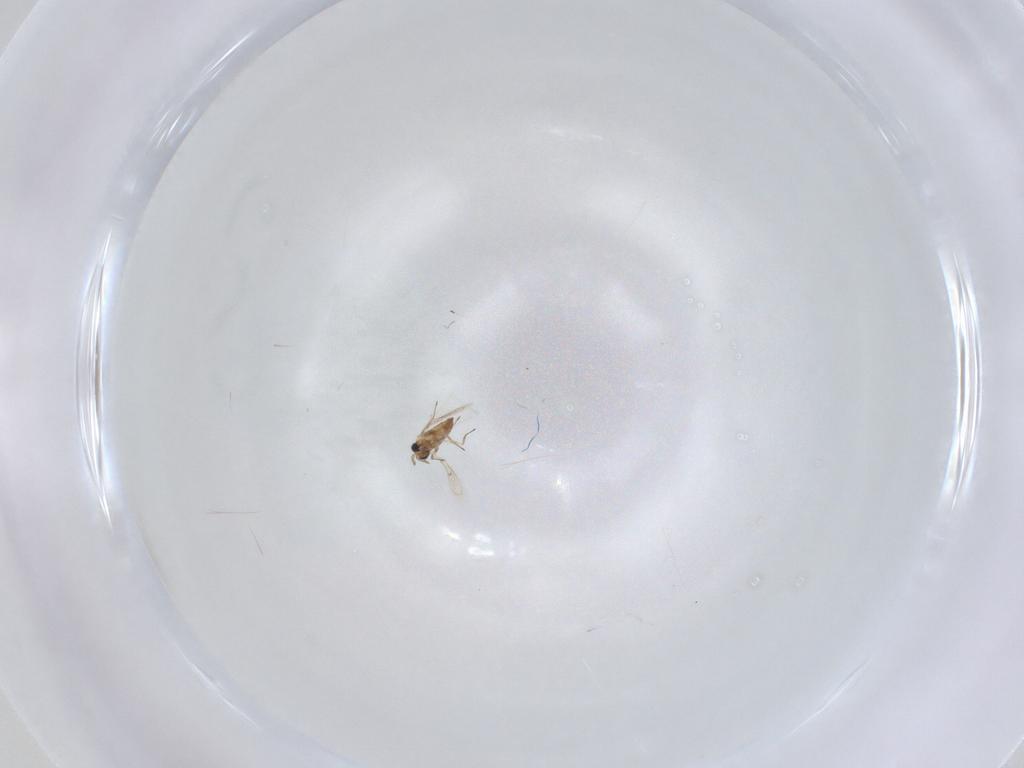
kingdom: Animalia
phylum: Arthropoda
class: Insecta
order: Hymenoptera
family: Trichogrammatidae
